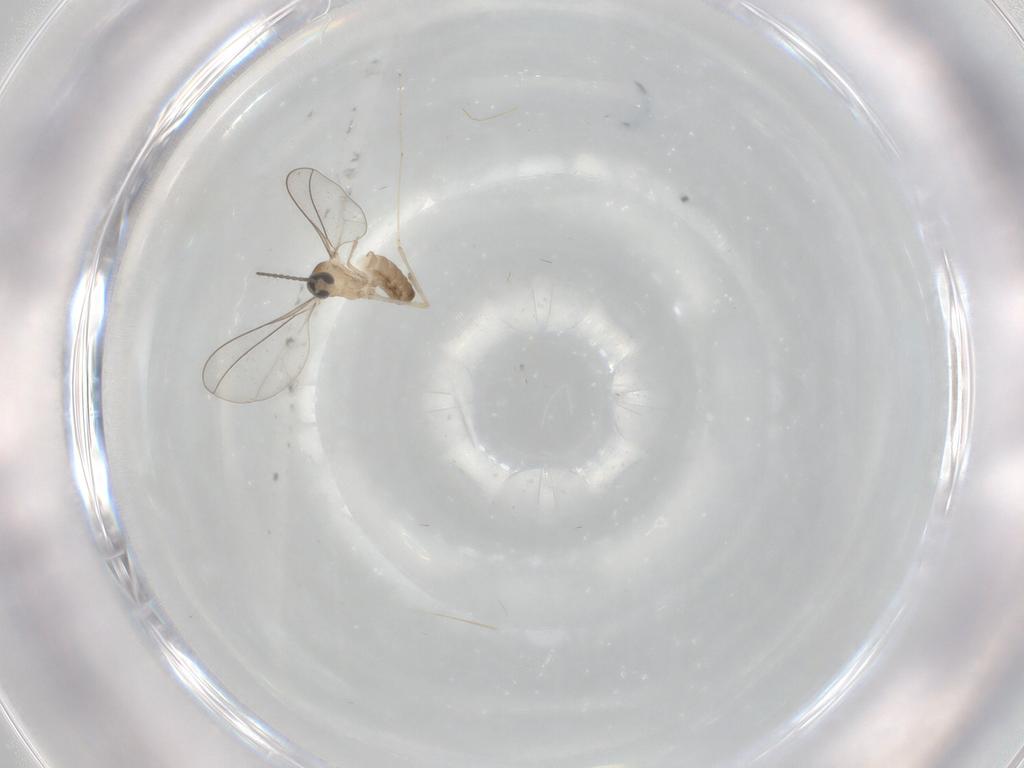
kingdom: Animalia
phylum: Arthropoda
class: Insecta
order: Diptera
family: Cecidomyiidae
